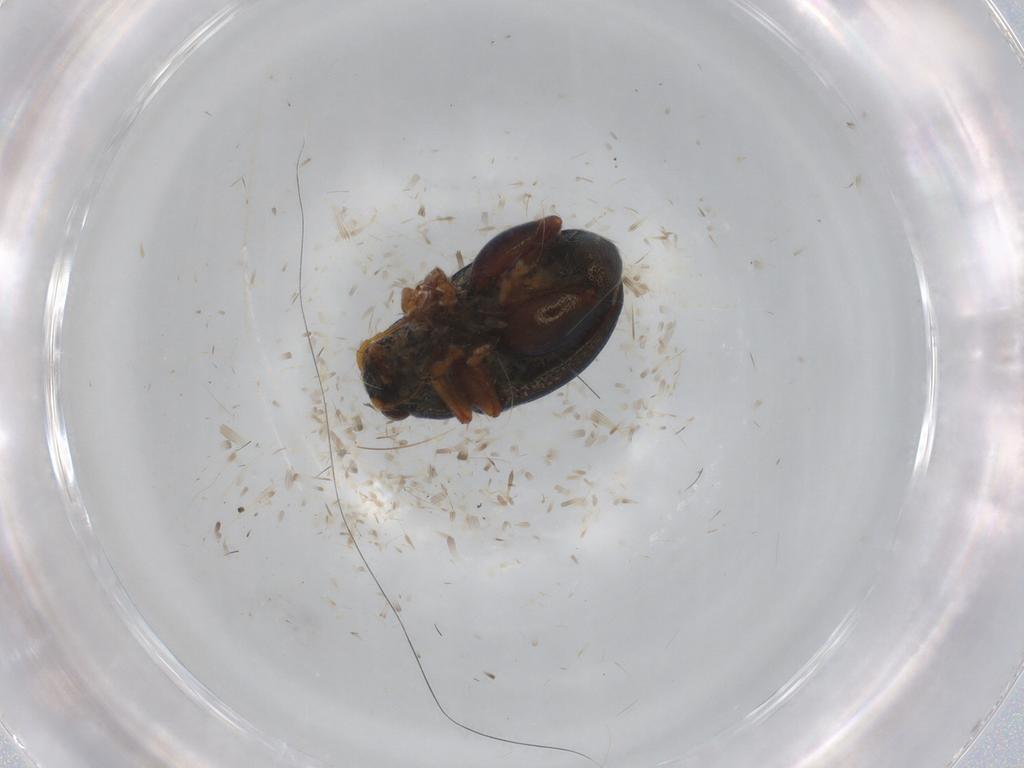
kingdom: Animalia
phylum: Arthropoda
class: Insecta
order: Coleoptera
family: Chrysomelidae
